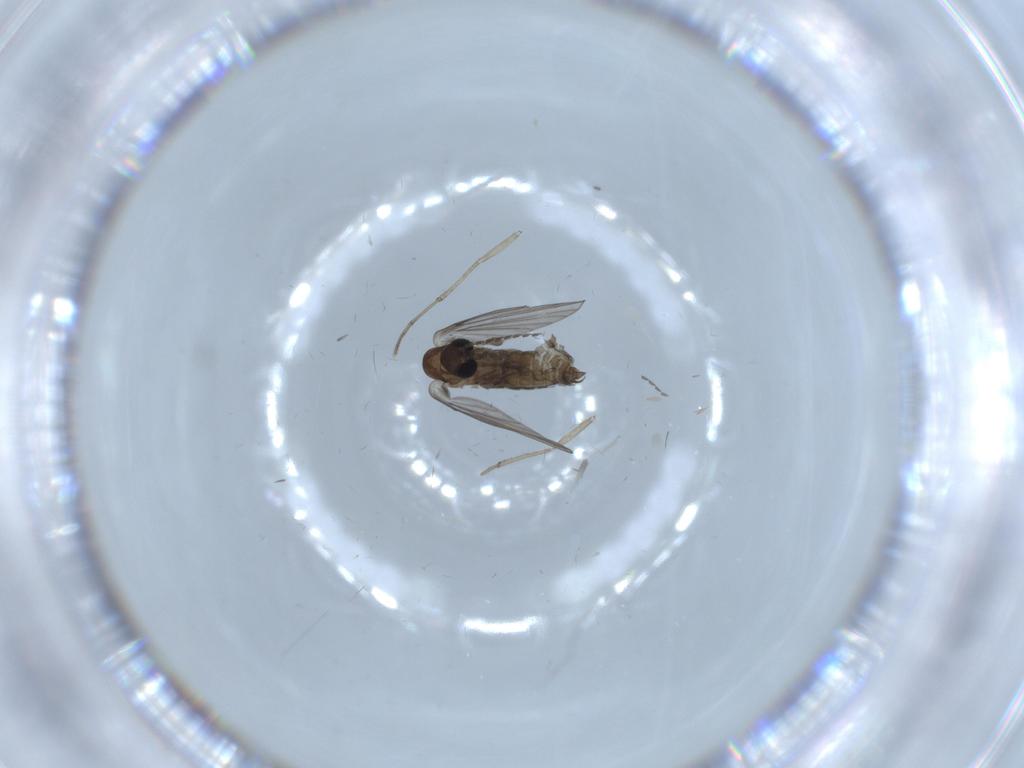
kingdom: Animalia
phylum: Arthropoda
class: Insecta
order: Diptera
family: Psychodidae
